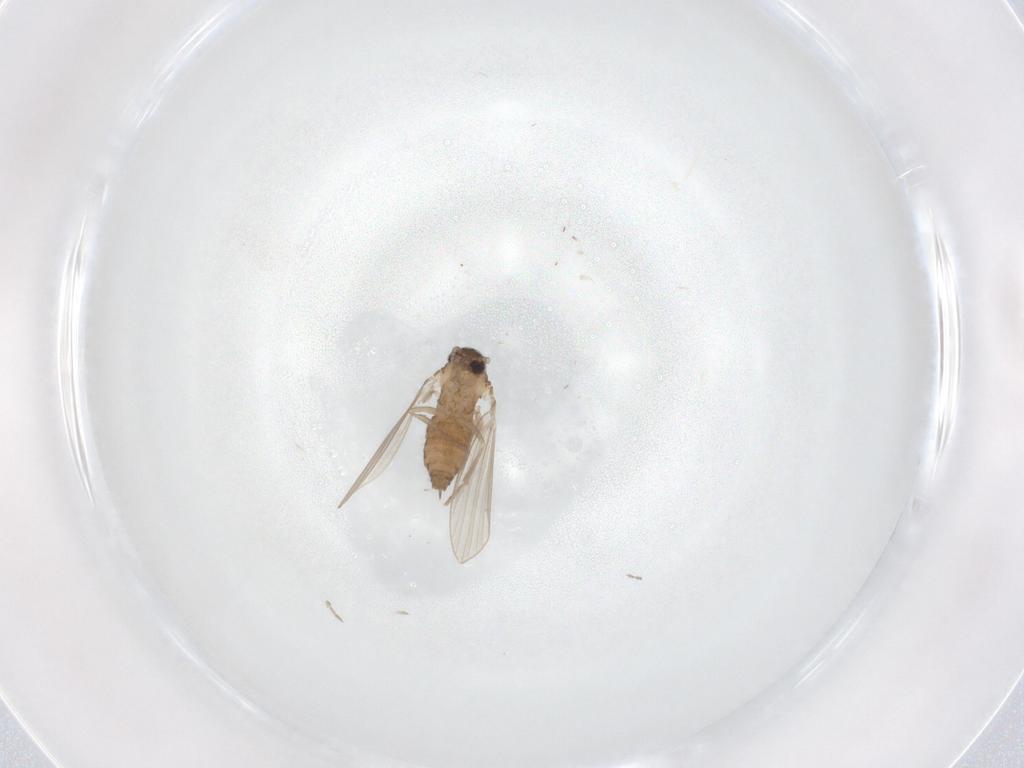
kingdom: Animalia
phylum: Arthropoda
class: Insecta
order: Diptera
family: Psychodidae
